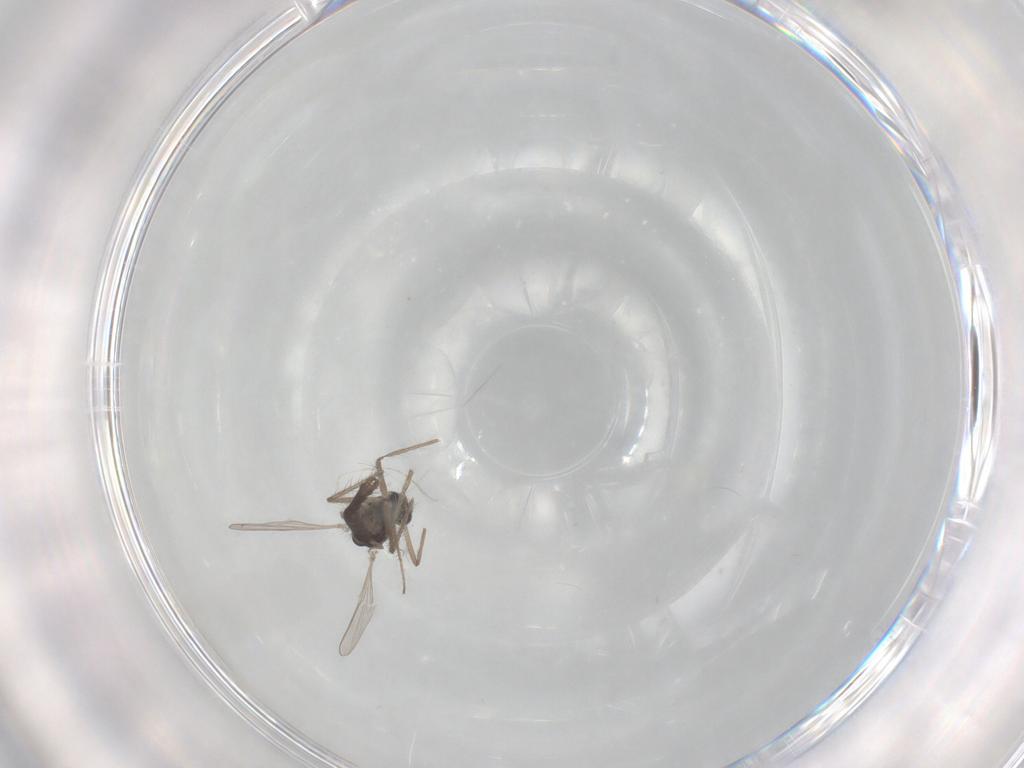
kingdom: Animalia
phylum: Arthropoda
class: Insecta
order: Diptera
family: Chironomidae
